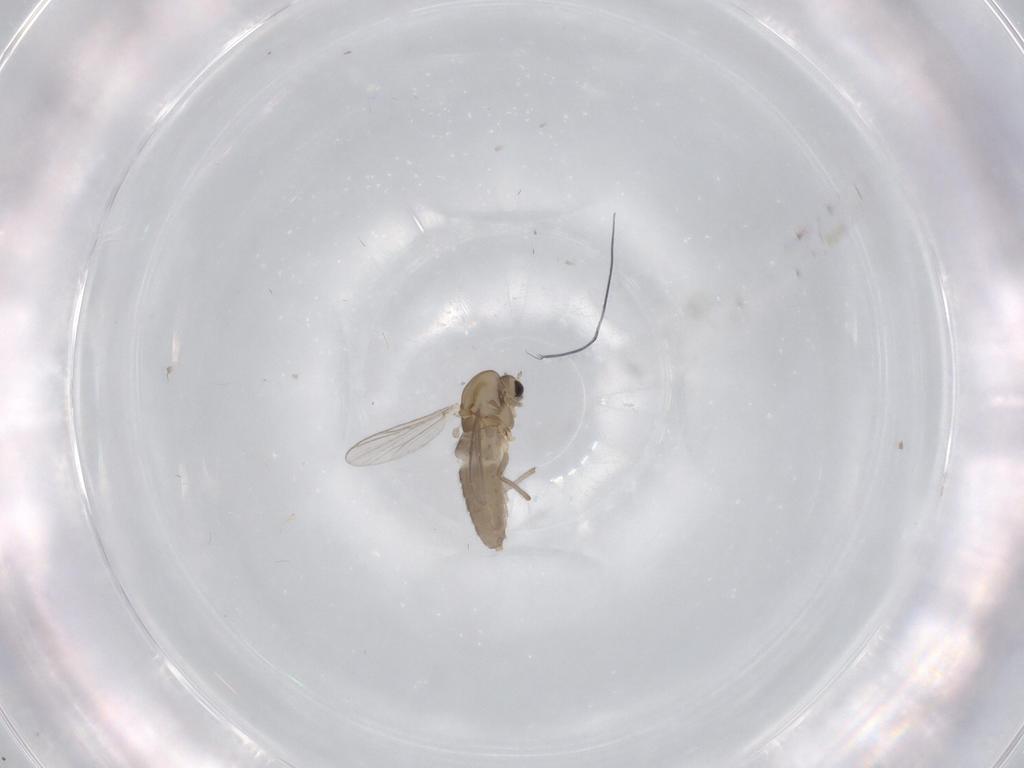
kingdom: Animalia
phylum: Arthropoda
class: Insecta
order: Diptera
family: Chironomidae
